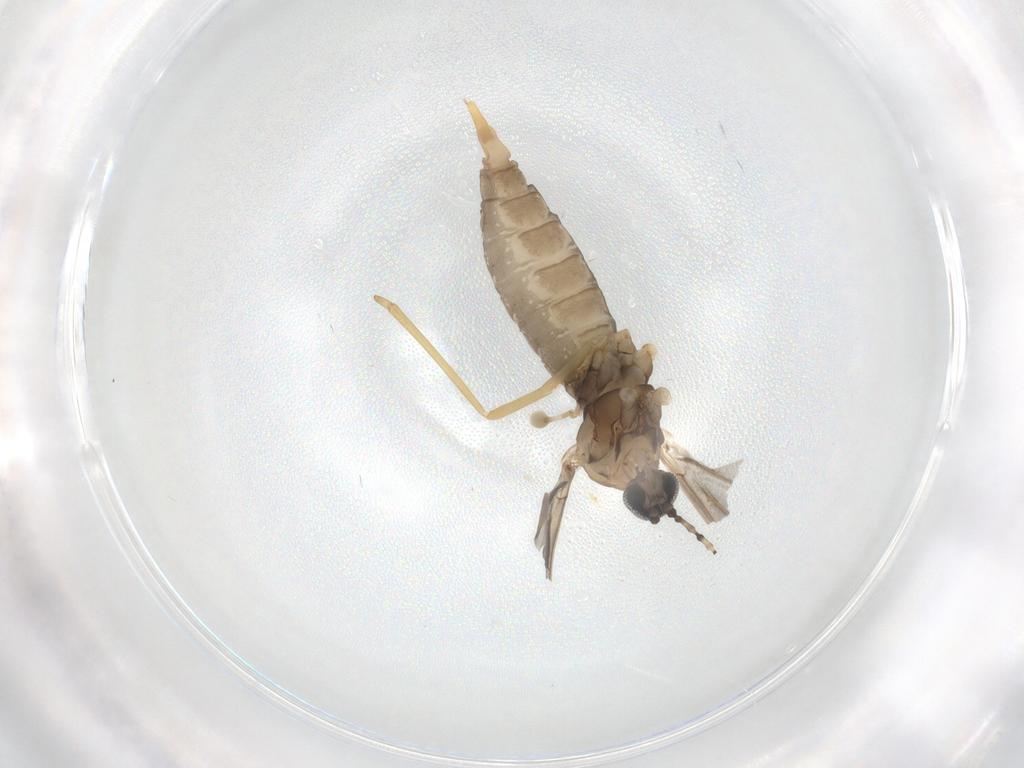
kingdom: Animalia
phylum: Arthropoda
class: Insecta
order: Diptera
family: Cecidomyiidae
